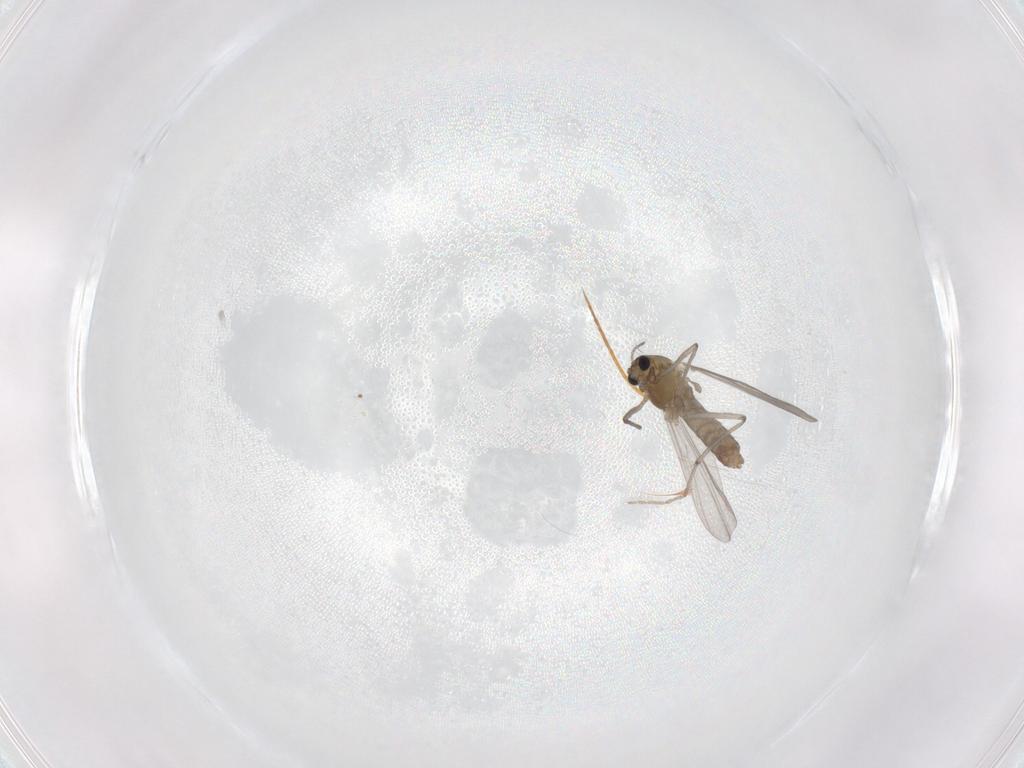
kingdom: Animalia
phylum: Arthropoda
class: Insecta
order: Diptera
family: Chironomidae
